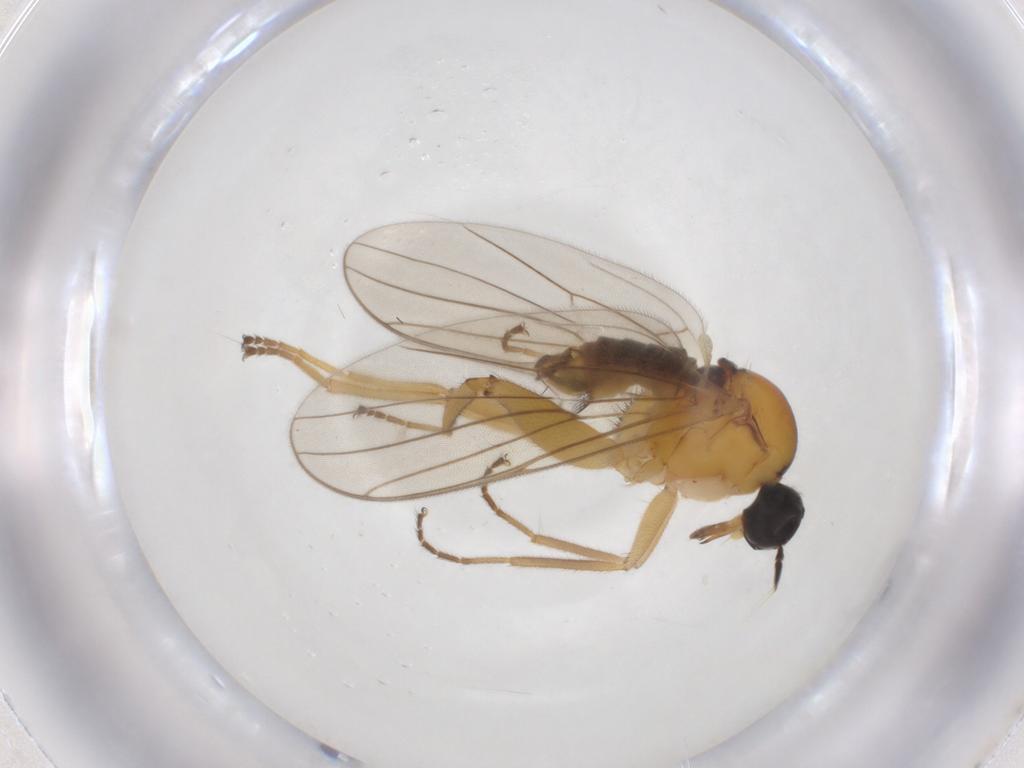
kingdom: Animalia
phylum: Arthropoda
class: Insecta
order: Diptera
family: Hybotidae
